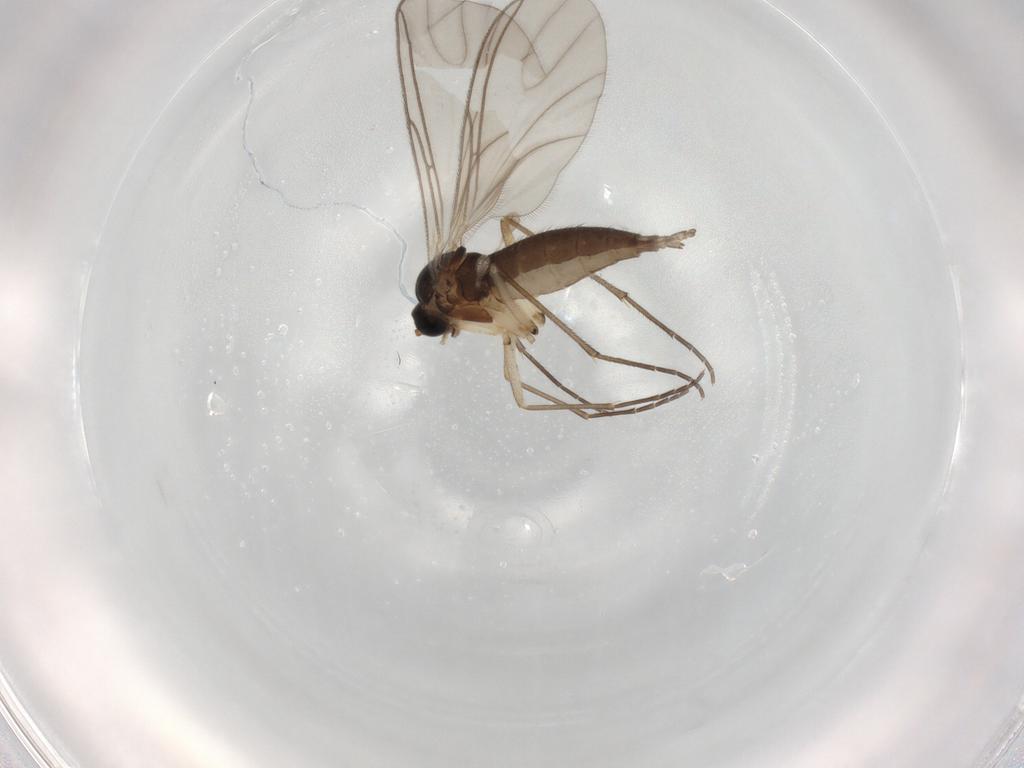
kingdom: Animalia
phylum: Arthropoda
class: Insecta
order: Diptera
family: Sciaridae
